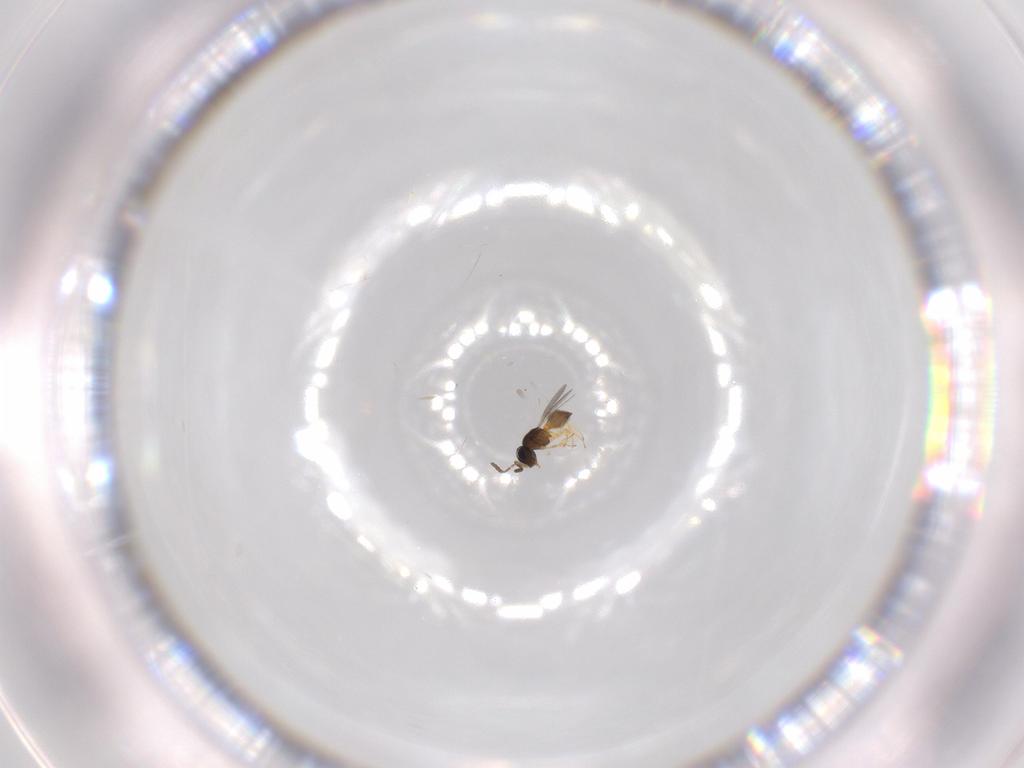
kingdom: Animalia
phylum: Arthropoda
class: Insecta
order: Hymenoptera
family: Scelionidae
